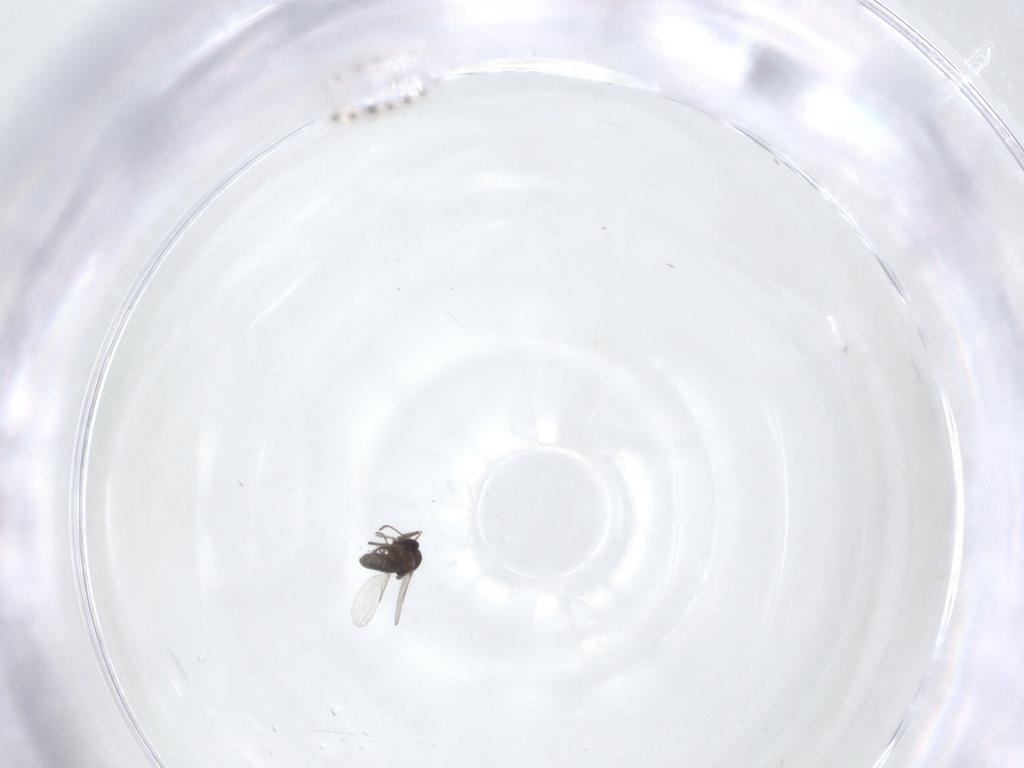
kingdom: Animalia
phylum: Arthropoda
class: Insecta
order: Diptera
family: Ceratopogonidae
